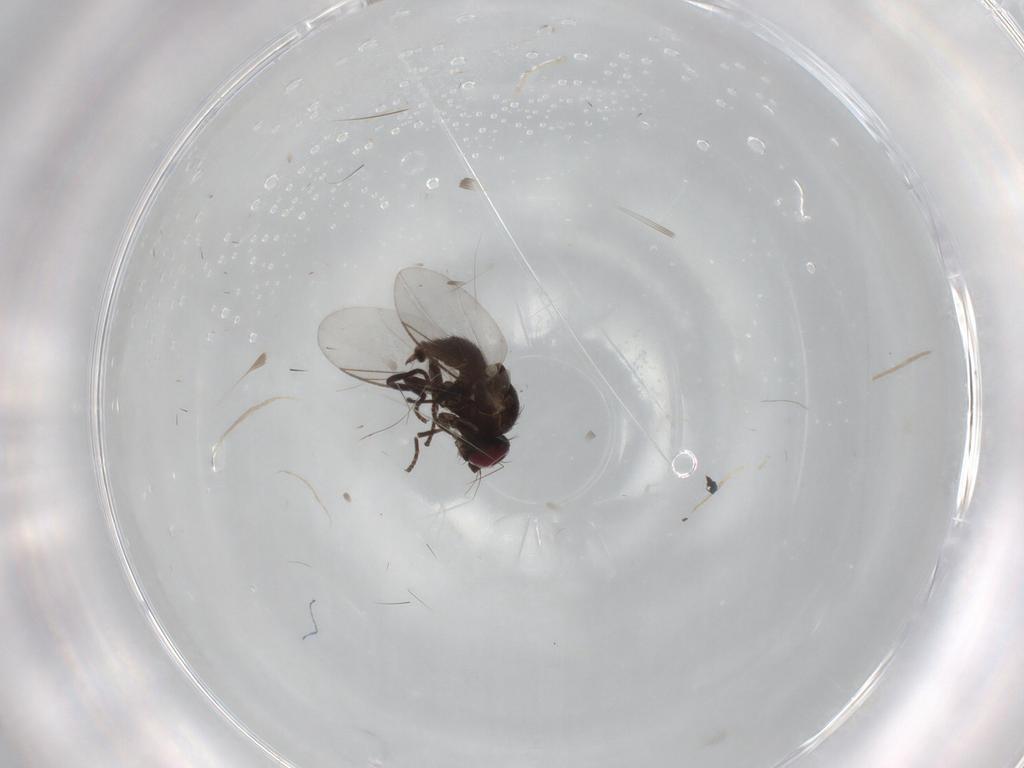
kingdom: Animalia
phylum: Arthropoda
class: Insecta
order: Diptera
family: Agromyzidae
